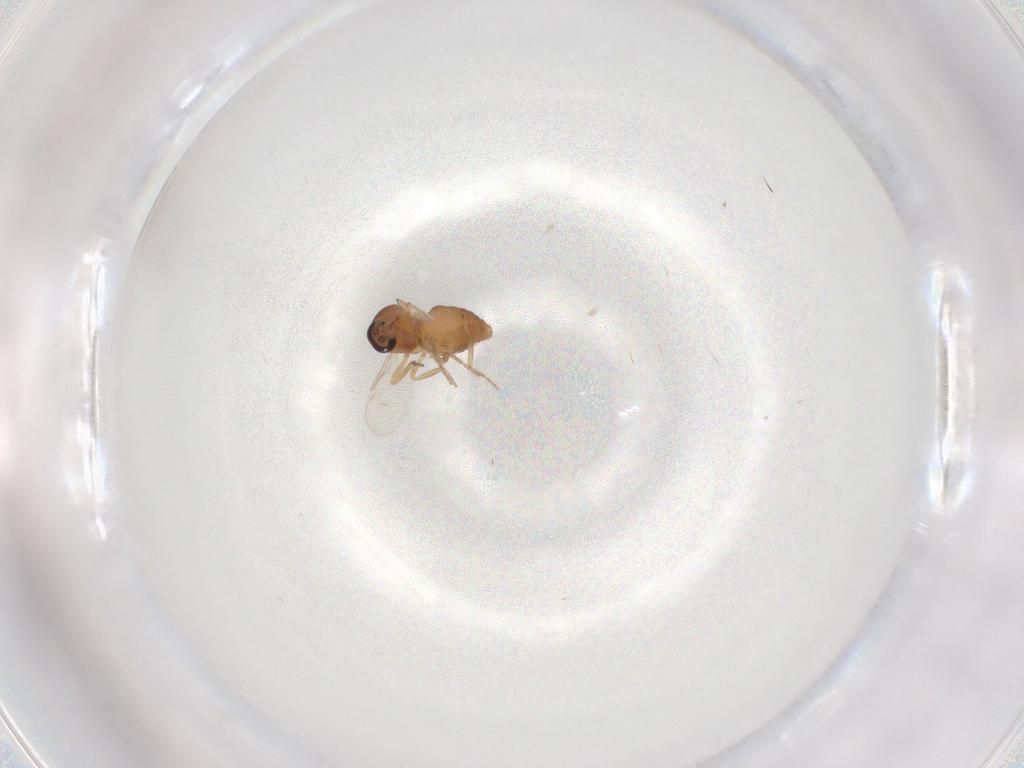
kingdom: Animalia
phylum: Arthropoda
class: Insecta
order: Diptera
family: Ceratopogonidae
